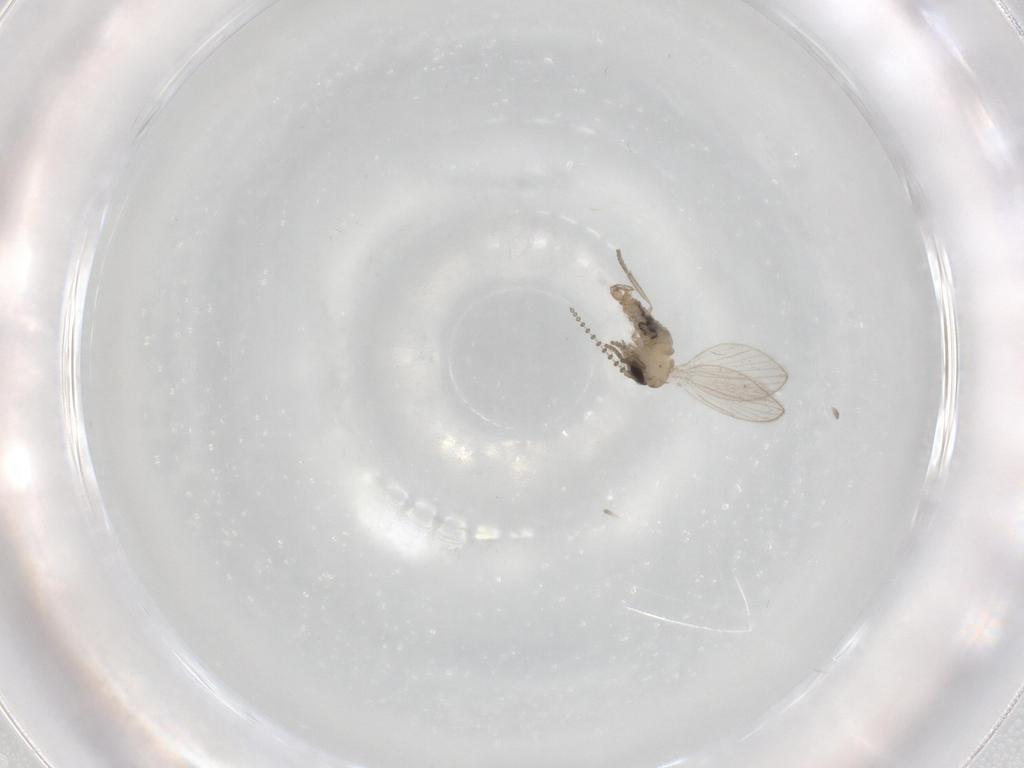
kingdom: Animalia
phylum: Arthropoda
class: Insecta
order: Diptera
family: Psychodidae
